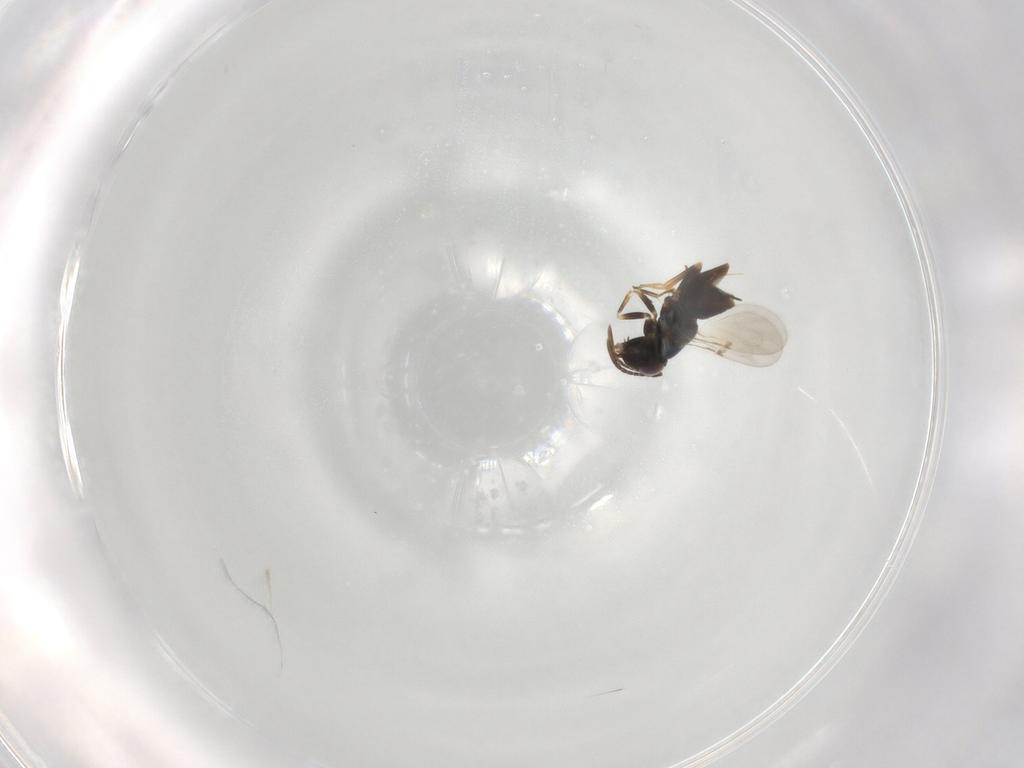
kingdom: Animalia
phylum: Arthropoda
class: Insecta
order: Hymenoptera
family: Encyrtidae
